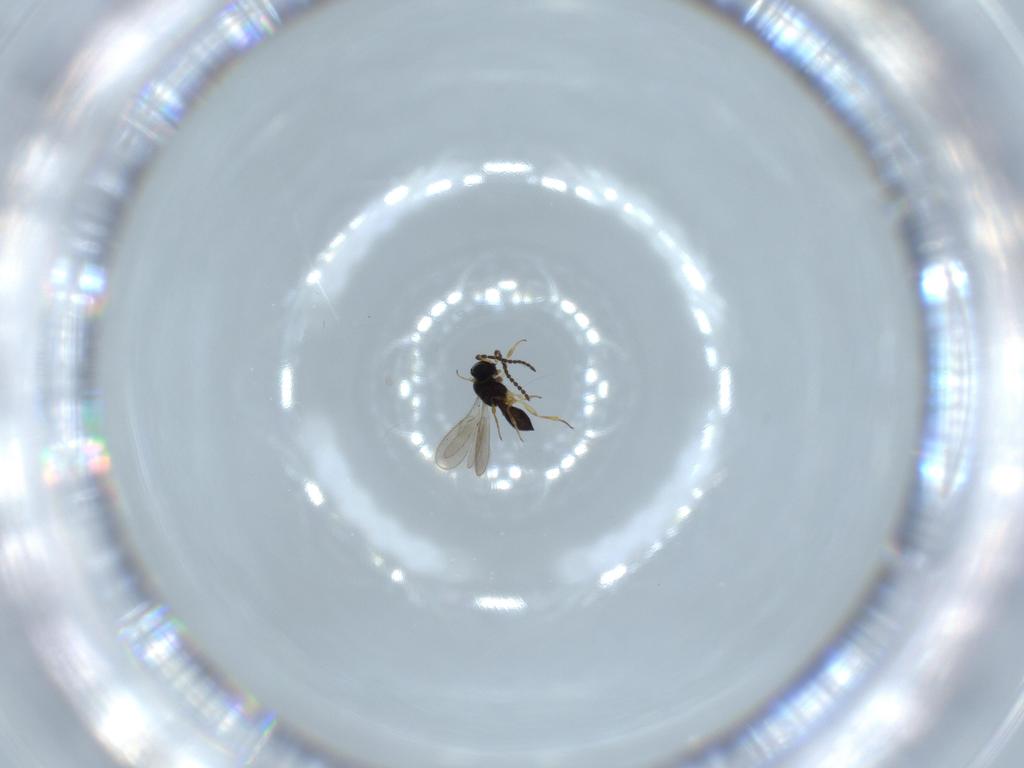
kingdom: Animalia
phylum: Arthropoda
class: Insecta
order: Hymenoptera
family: Scelionidae
